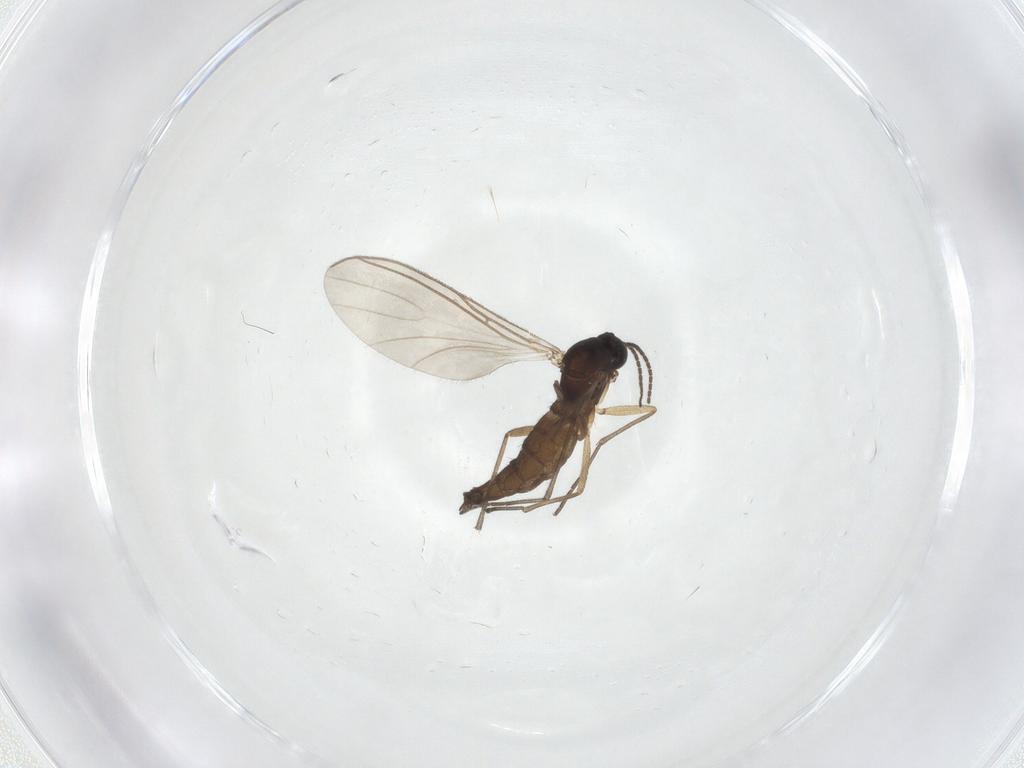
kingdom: Animalia
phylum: Arthropoda
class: Insecta
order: Diptera
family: Sciaridae
